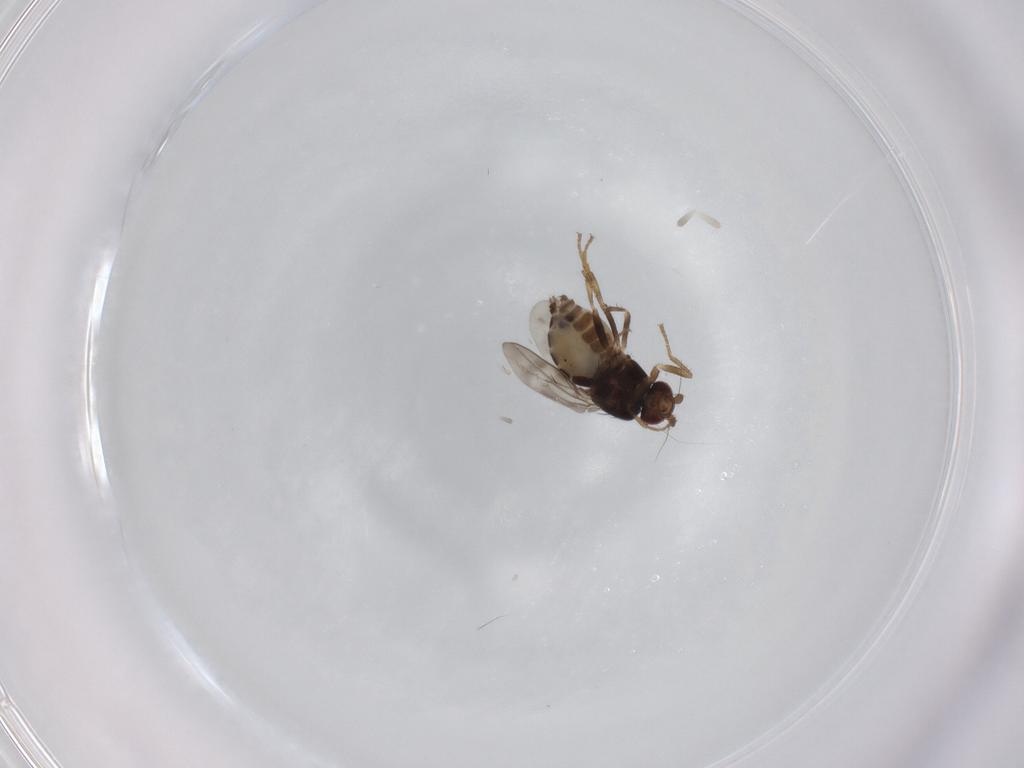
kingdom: Animalia
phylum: Arthropoda
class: Insecta
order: Diptera
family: Sphaeroceridae
